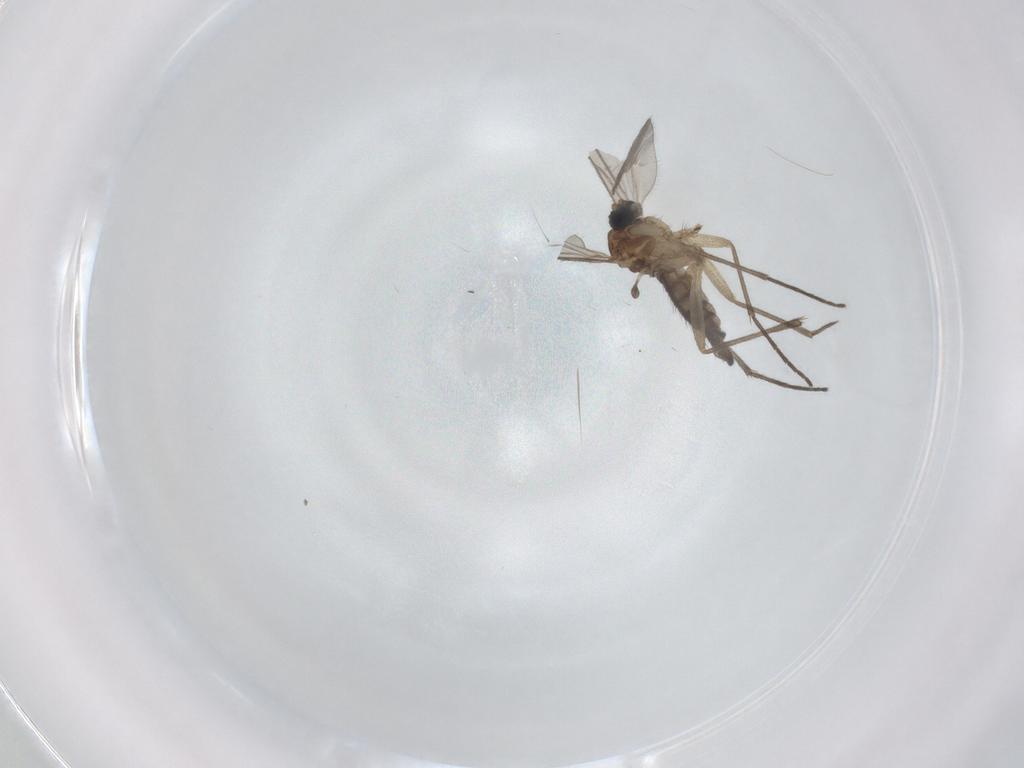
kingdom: Animalia
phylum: Arthropoda
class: Insecta
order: Diptera
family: Sciaridae
